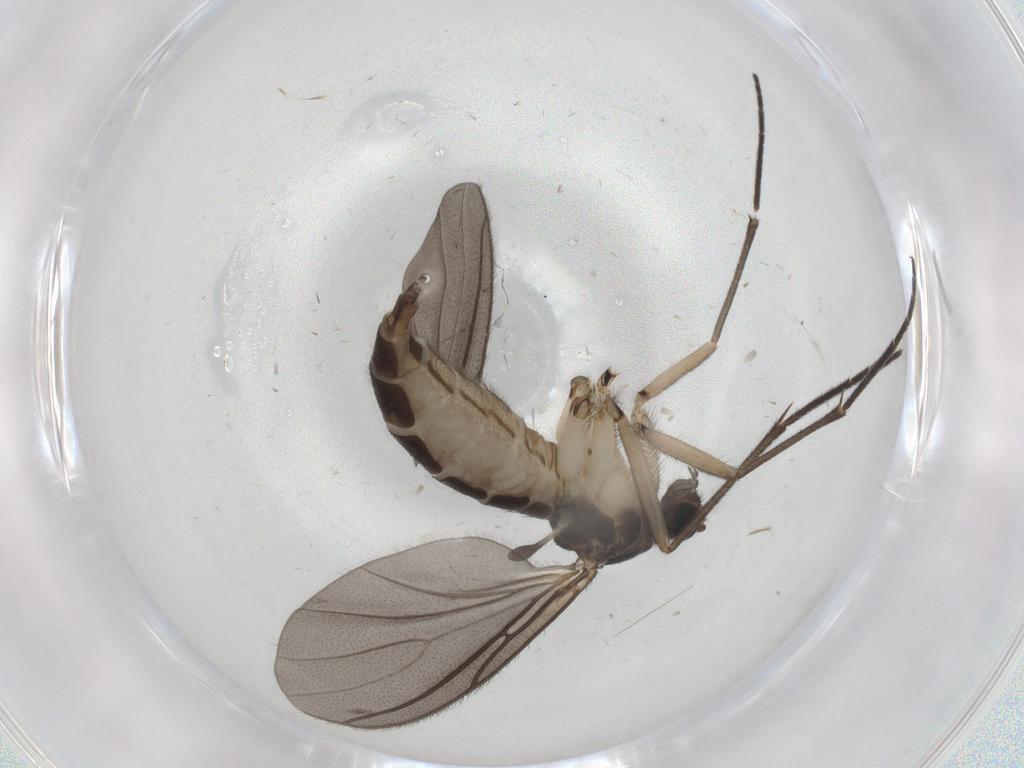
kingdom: Animalia
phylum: Arthropoda
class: Insecta
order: Diptera
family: Sciaridae
